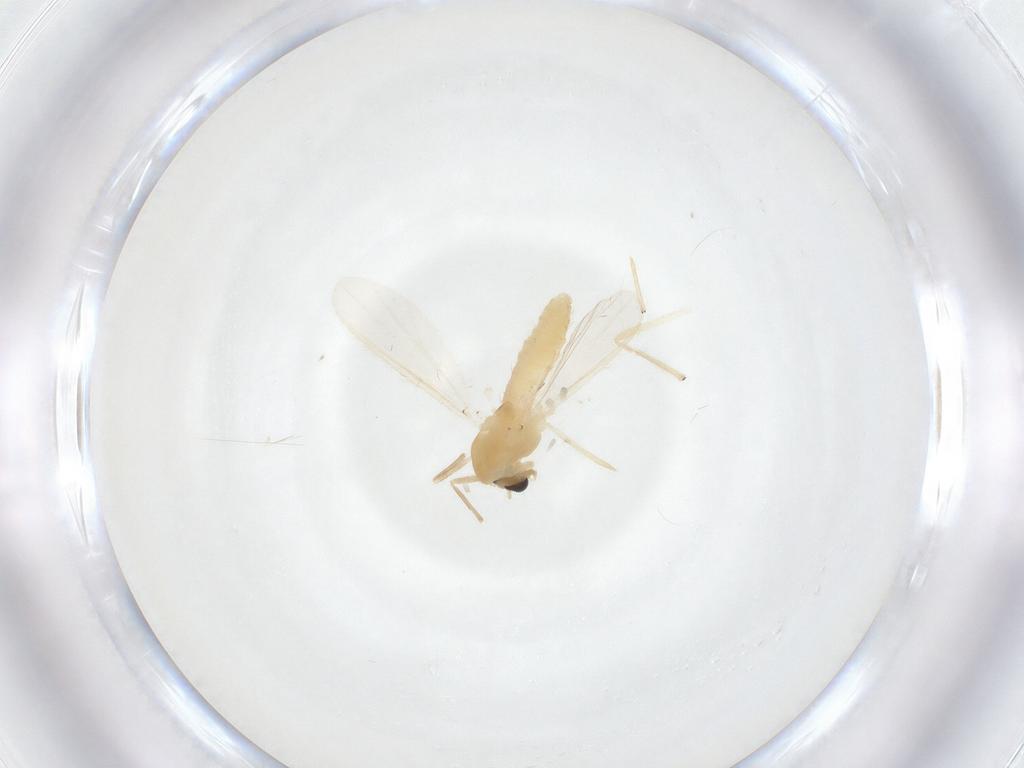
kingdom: Animalia
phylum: Arthropoda
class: Insecta
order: Diptera
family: Chironomidae
